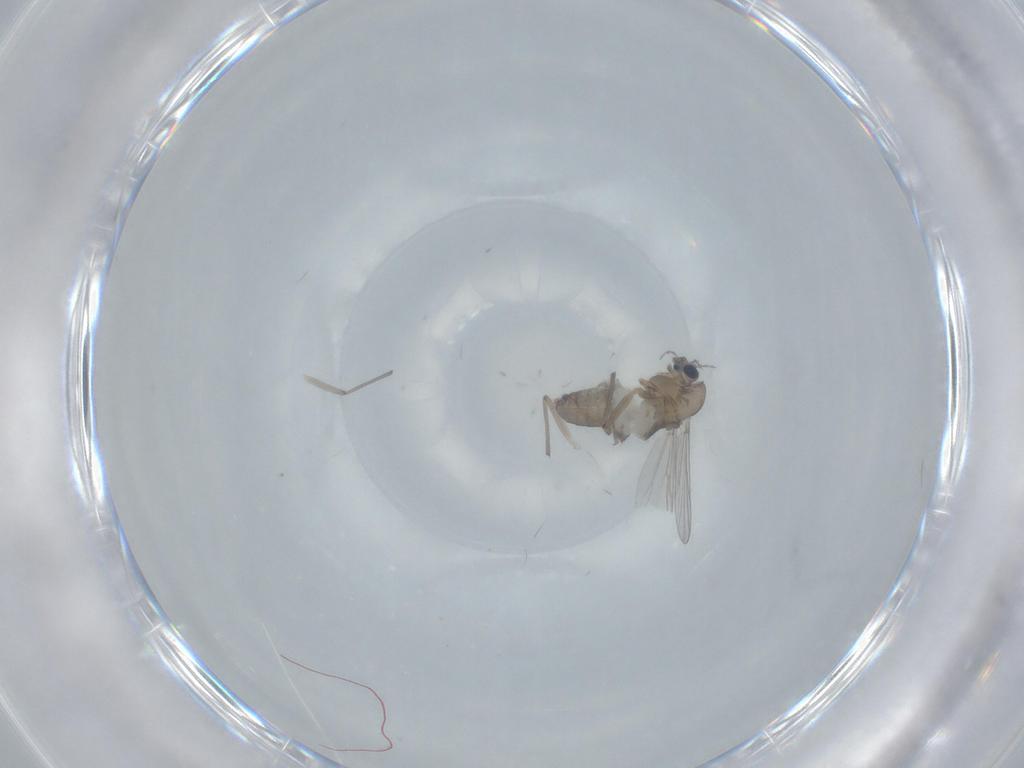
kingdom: Animalia
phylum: Arthropoda
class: Insecta
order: Diptera
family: Chironomidae
